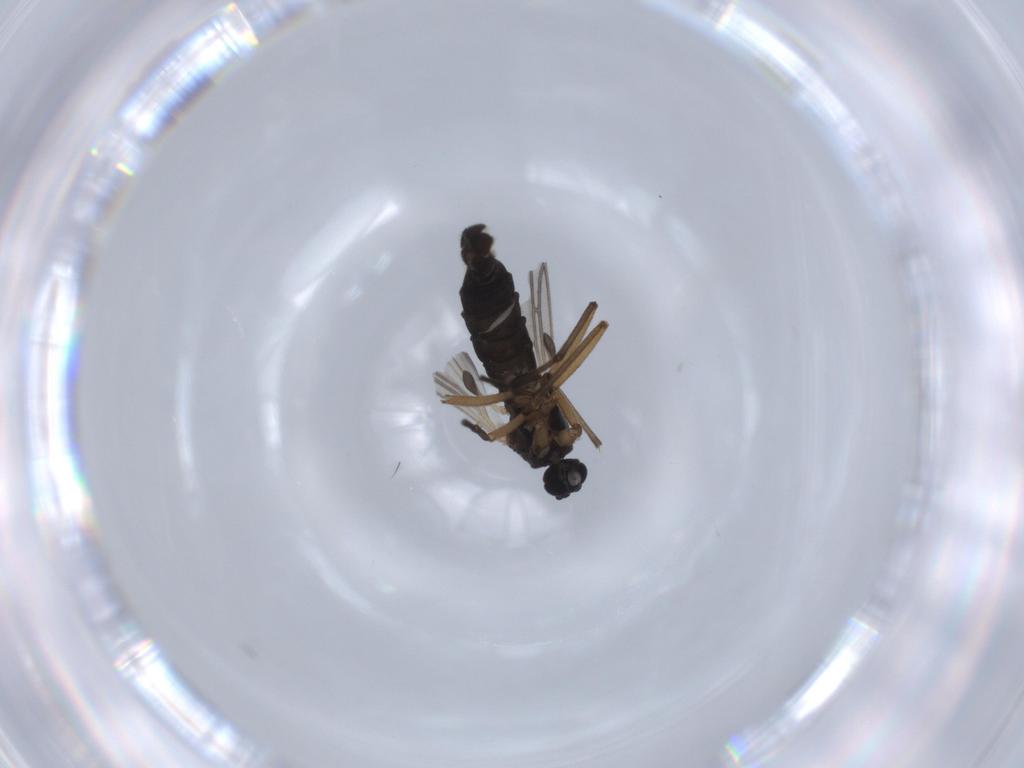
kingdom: Animalia
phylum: Arthropoda
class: Insecta
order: Diptera
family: Sciaridae
